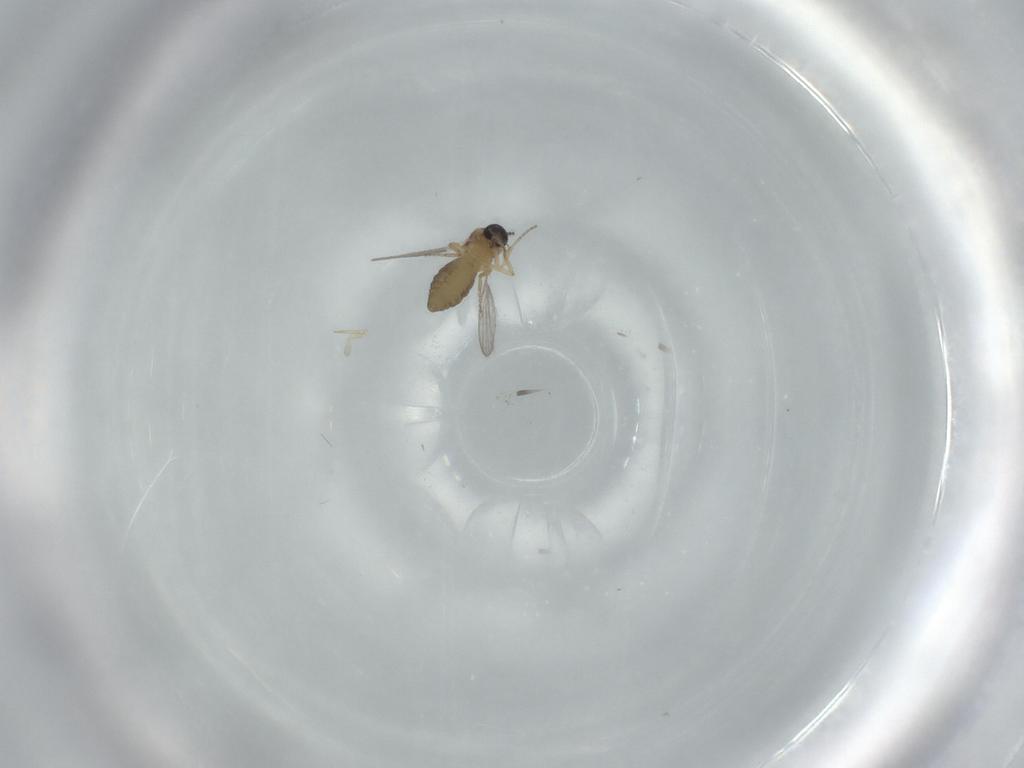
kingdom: Animalia
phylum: Arthropoda
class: Insecta
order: Diptera
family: Ceratopogonidae
